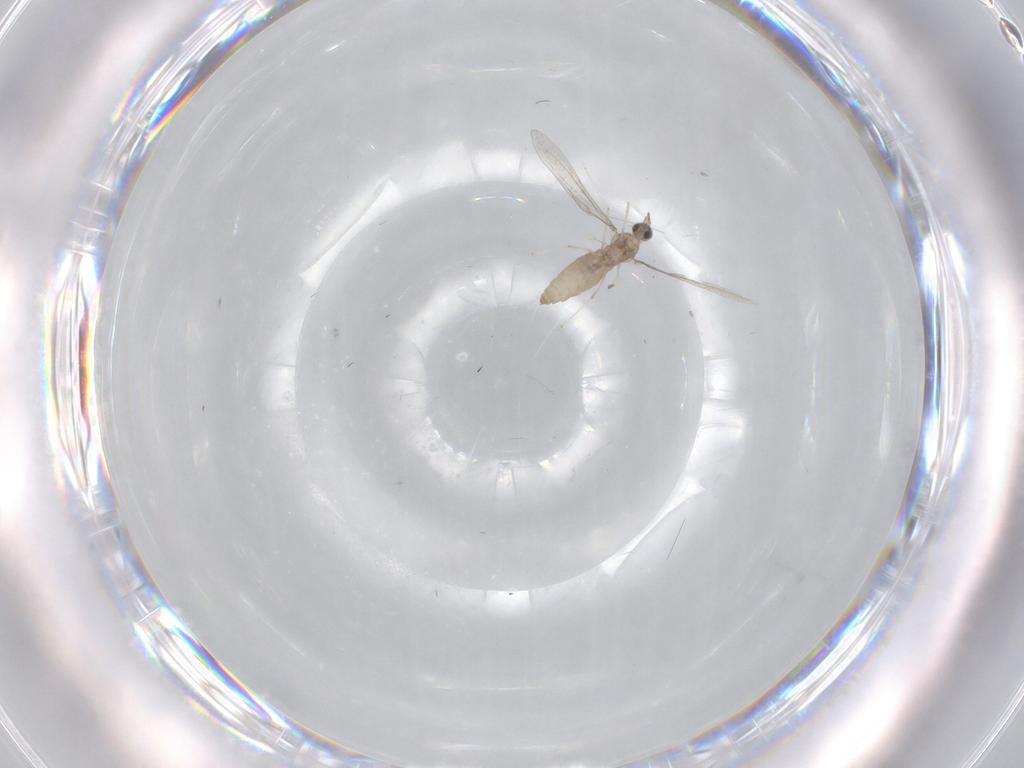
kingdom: Animalia
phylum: Arthropoda
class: Insecta
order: Diptera
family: Cecidomyiidae
